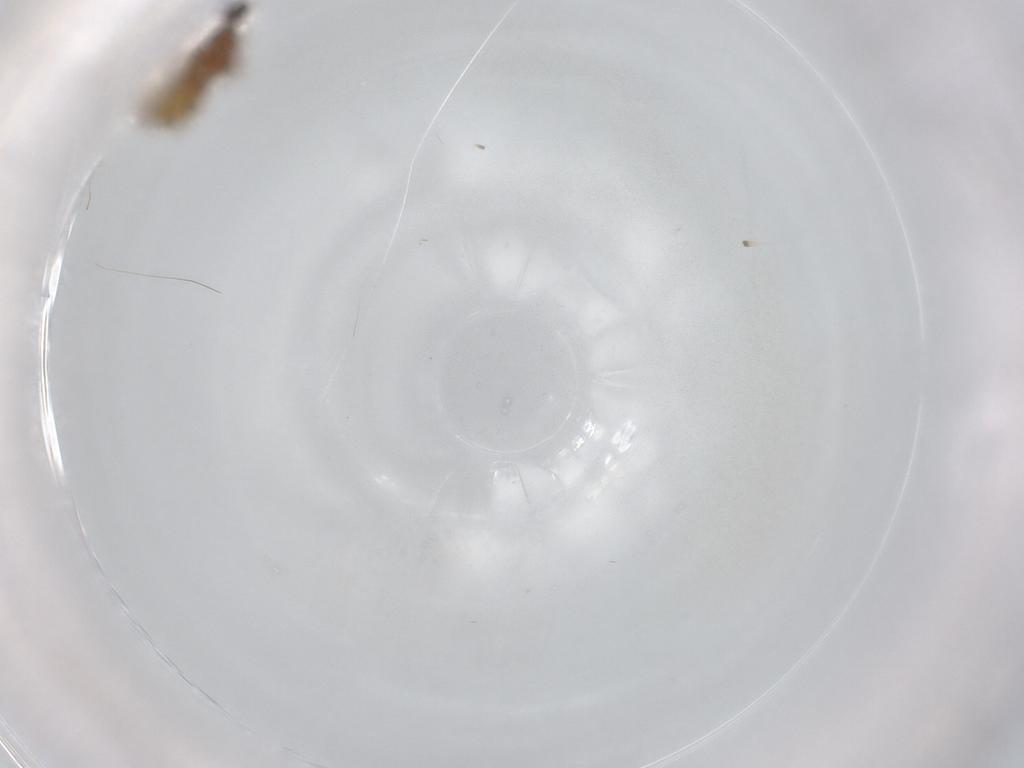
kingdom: Animalia
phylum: Arthropoda
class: Insecta
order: Diptera
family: Cecidomyiidae
